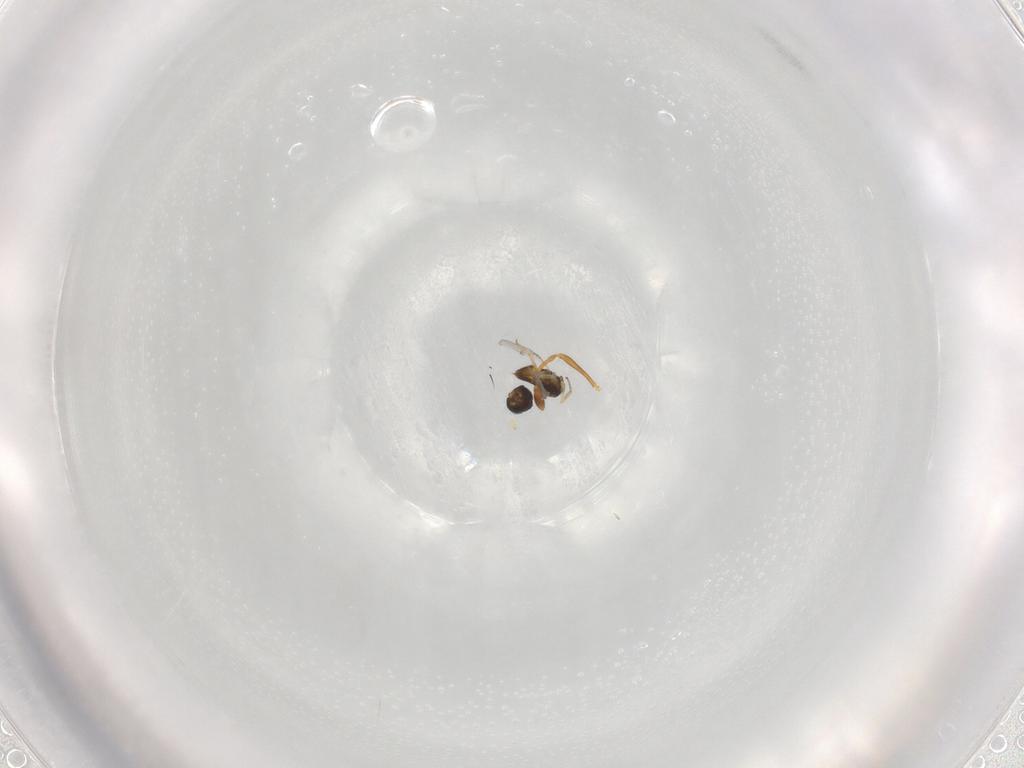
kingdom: Animalia
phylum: Arthropoda
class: Insecta
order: Hymenoptera
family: Formicidae
